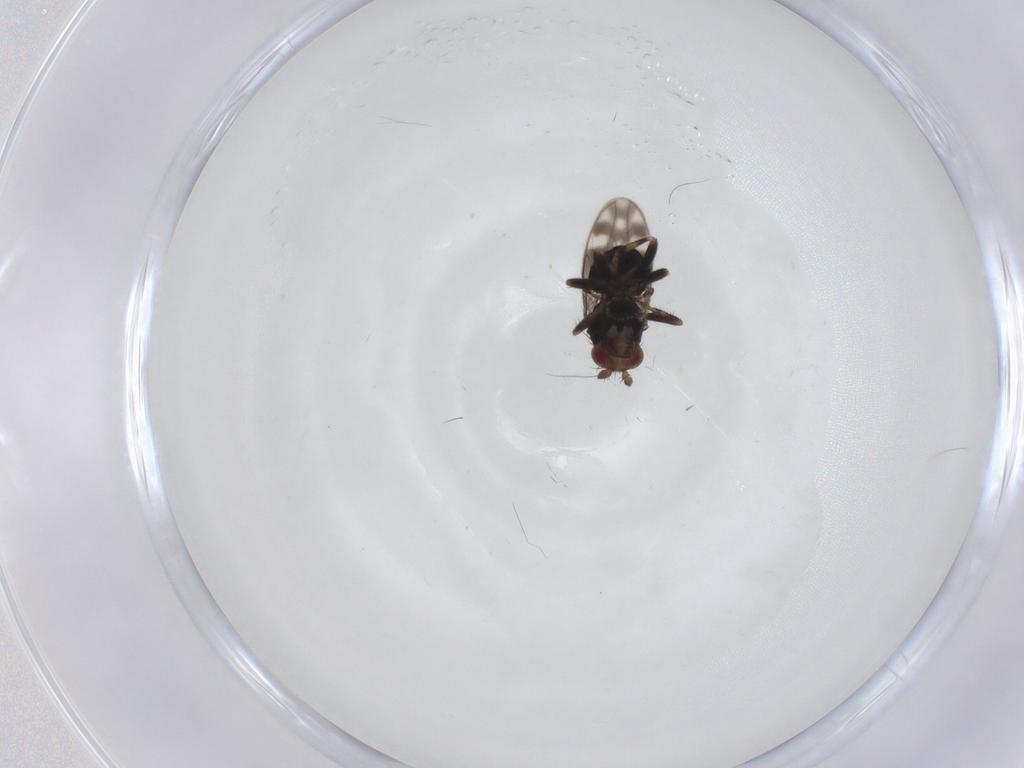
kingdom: Animalia
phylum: Arthropoda
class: Insecta
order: Diptera
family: Sphaeroceridae
